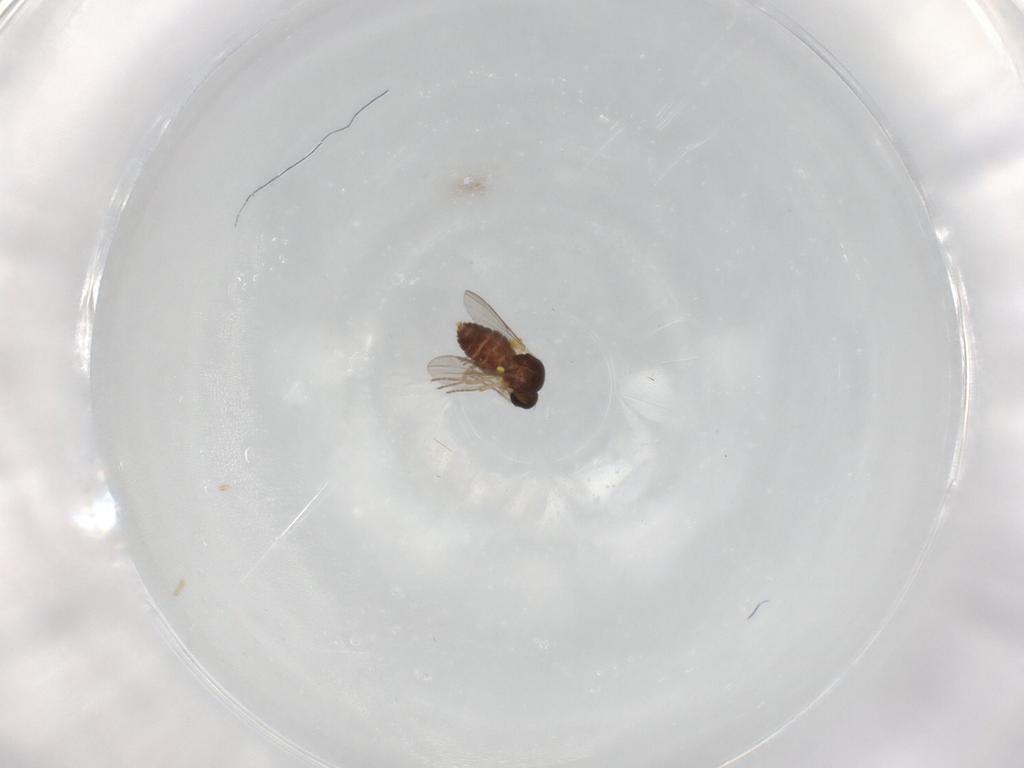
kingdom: Animalia
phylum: Arthropoda
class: Insecta
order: Diptera
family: Ceratopogonidae
